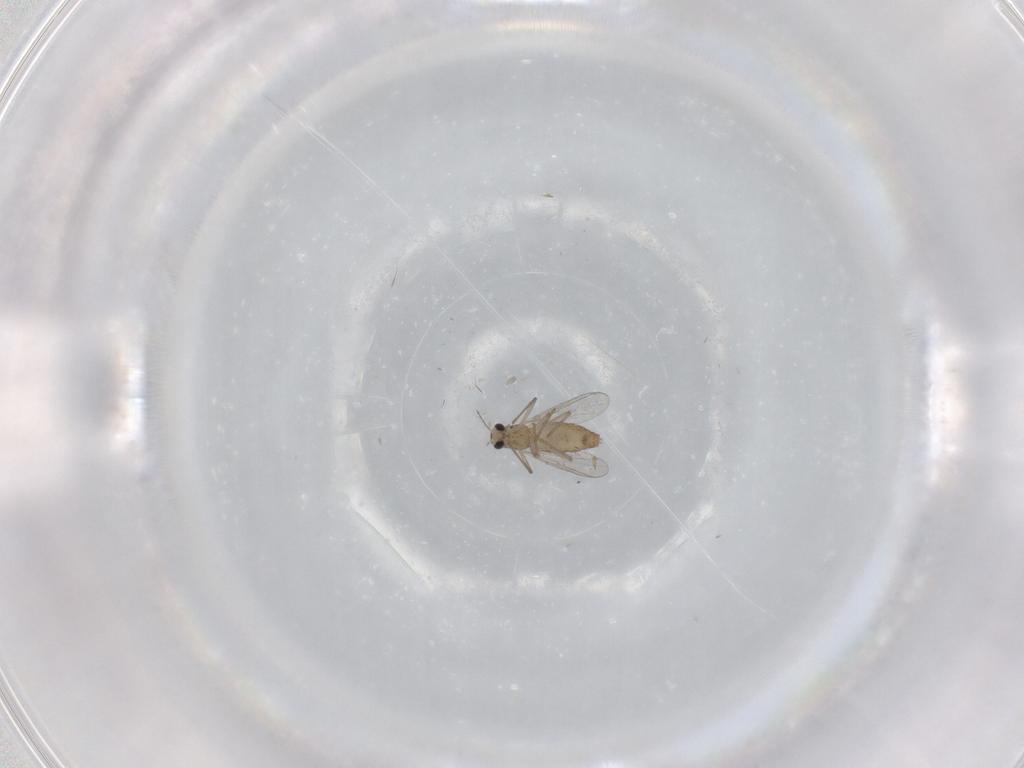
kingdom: Animalia
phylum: Arthropoda
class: Insecta
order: Diptera
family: Chironomidae
